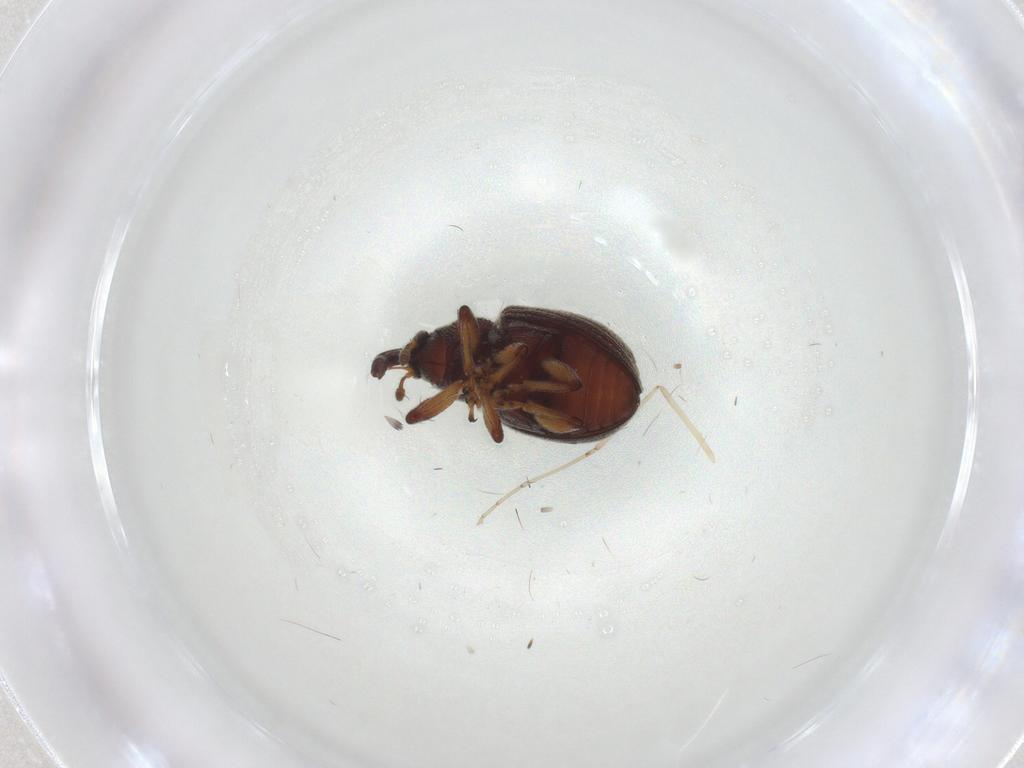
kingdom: Animalia
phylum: Arthropoda
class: Insecta
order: Coleoptera
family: Curculionidae
